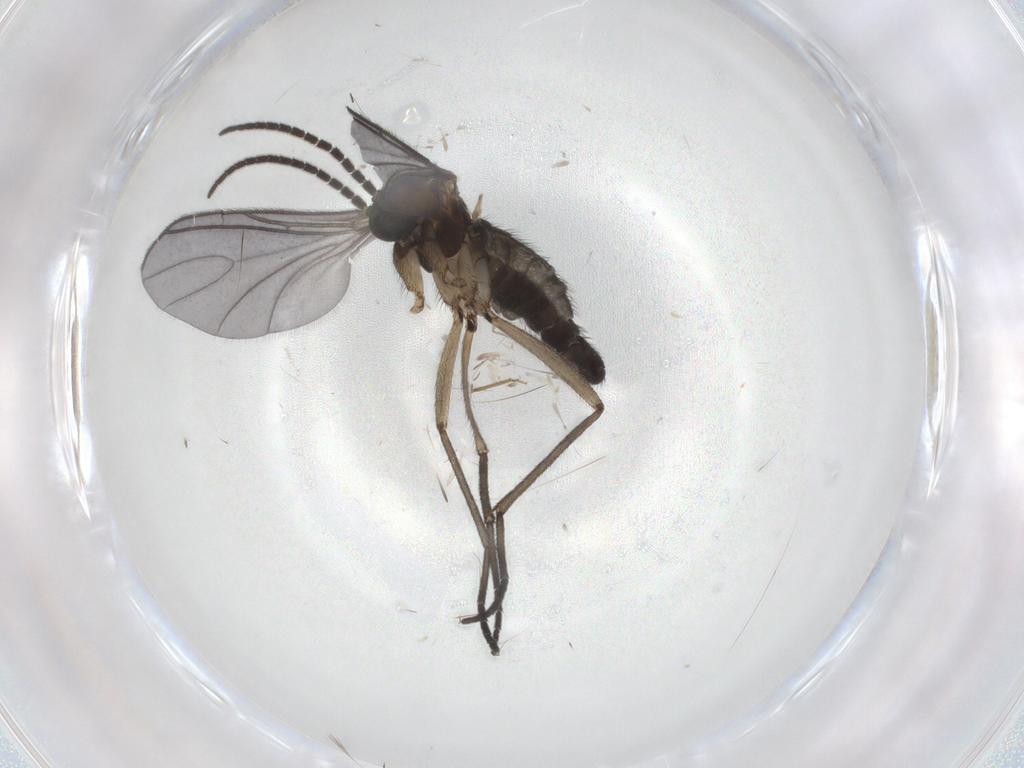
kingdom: Animalia
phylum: Arthropoda
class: Insecta
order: Diptera
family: Sciaridae
